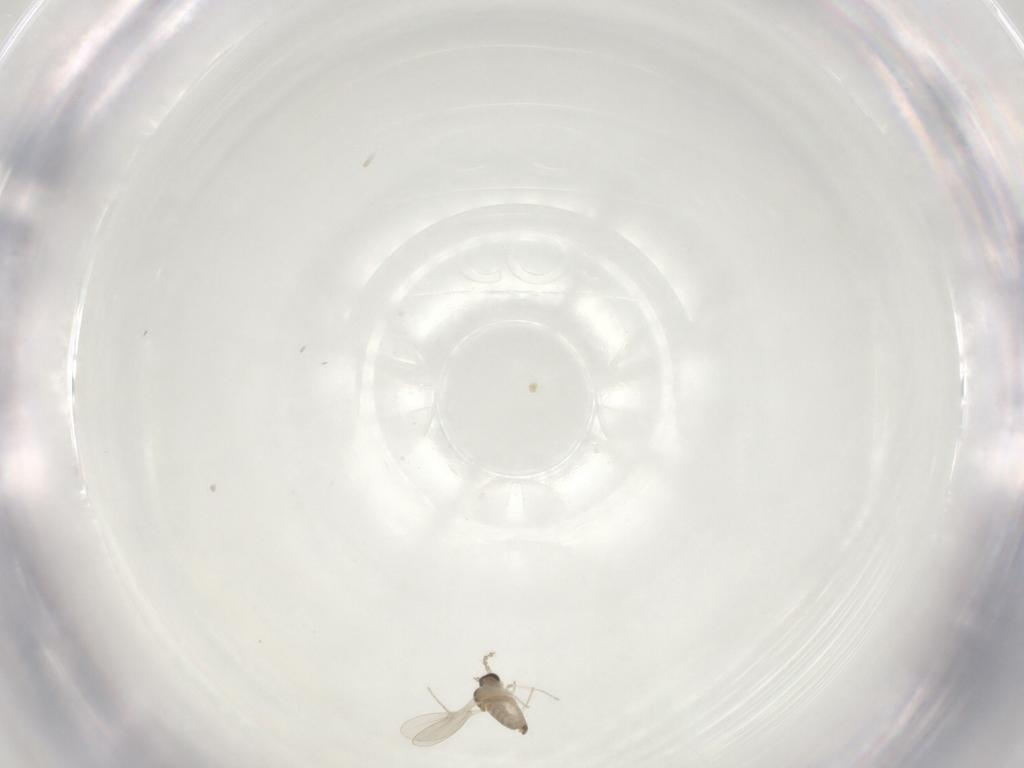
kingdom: Animalia
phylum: Arthropoda
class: Insecta
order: Diptera
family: Cecidomyiidae
